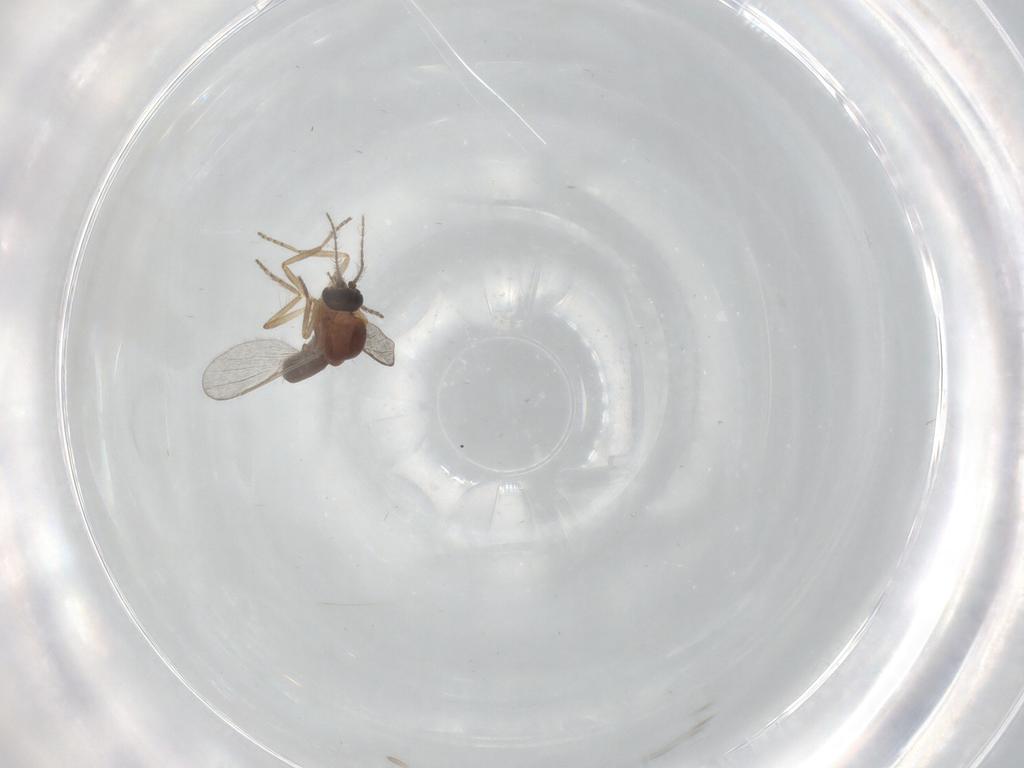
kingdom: Animalia
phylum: Arthropoda
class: Insecta
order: Diptera
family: Ceratopogonidae
